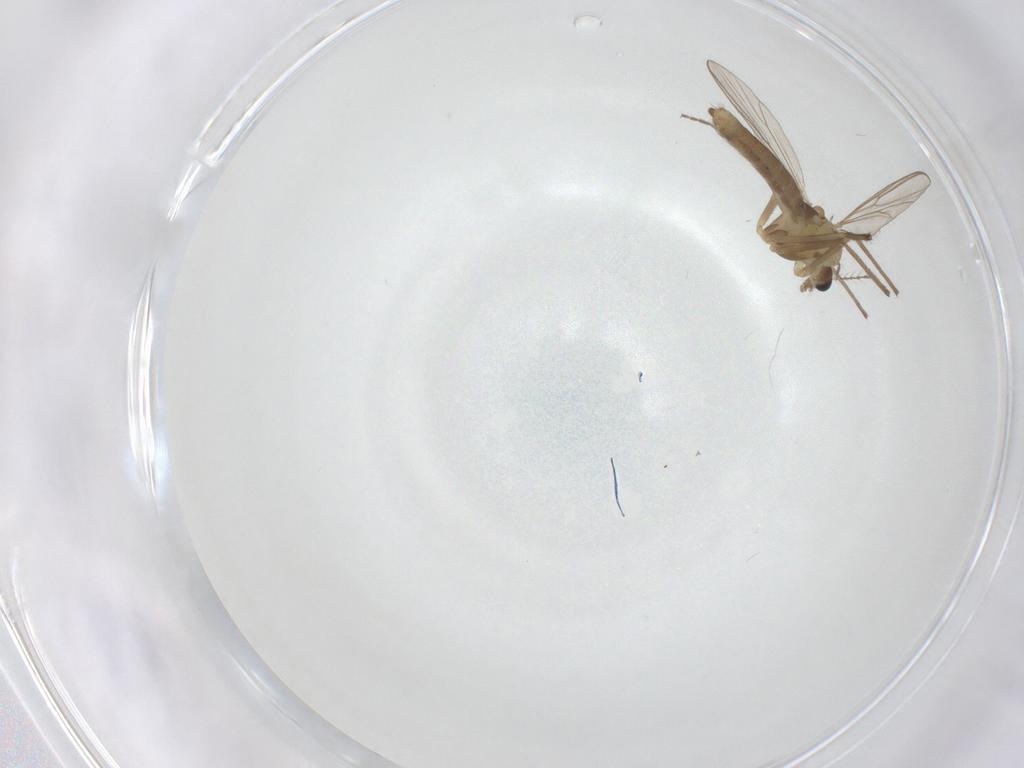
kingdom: Animalia
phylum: Arthropoda
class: Insecta
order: Diptera
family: Chironomidae
